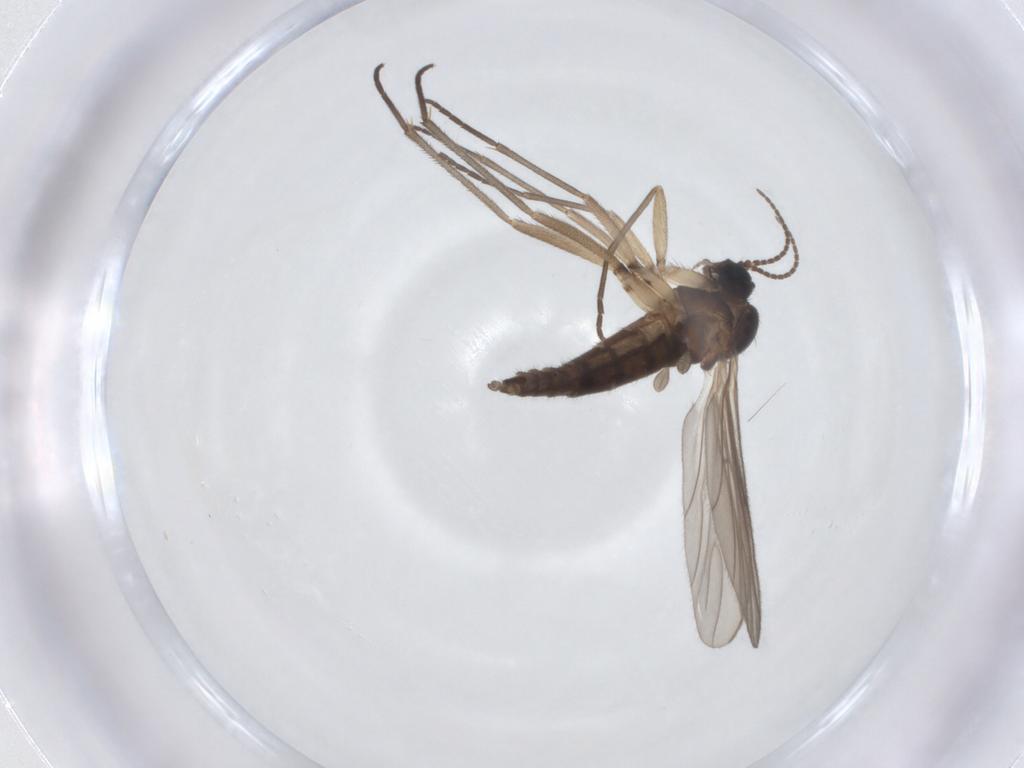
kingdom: Animalia
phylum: Arthropoda
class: Insecta
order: Diptera
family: Sciaridae
